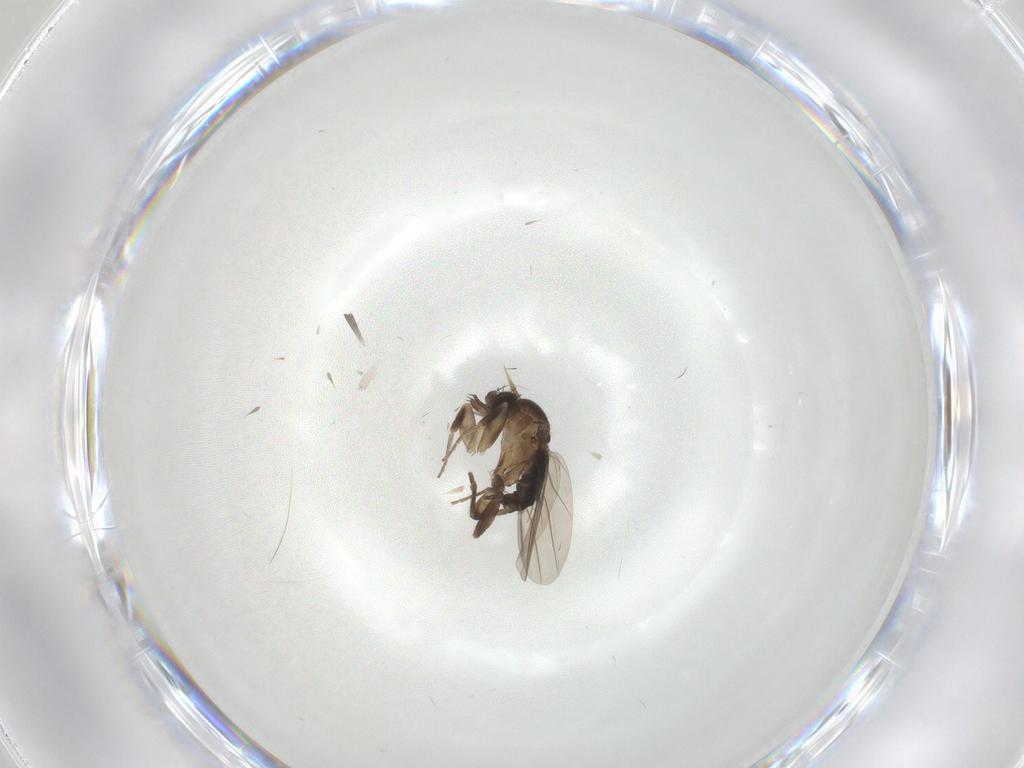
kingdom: Animalia
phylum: Arthropoda
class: Insecta
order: Diptera
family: Phoridae
